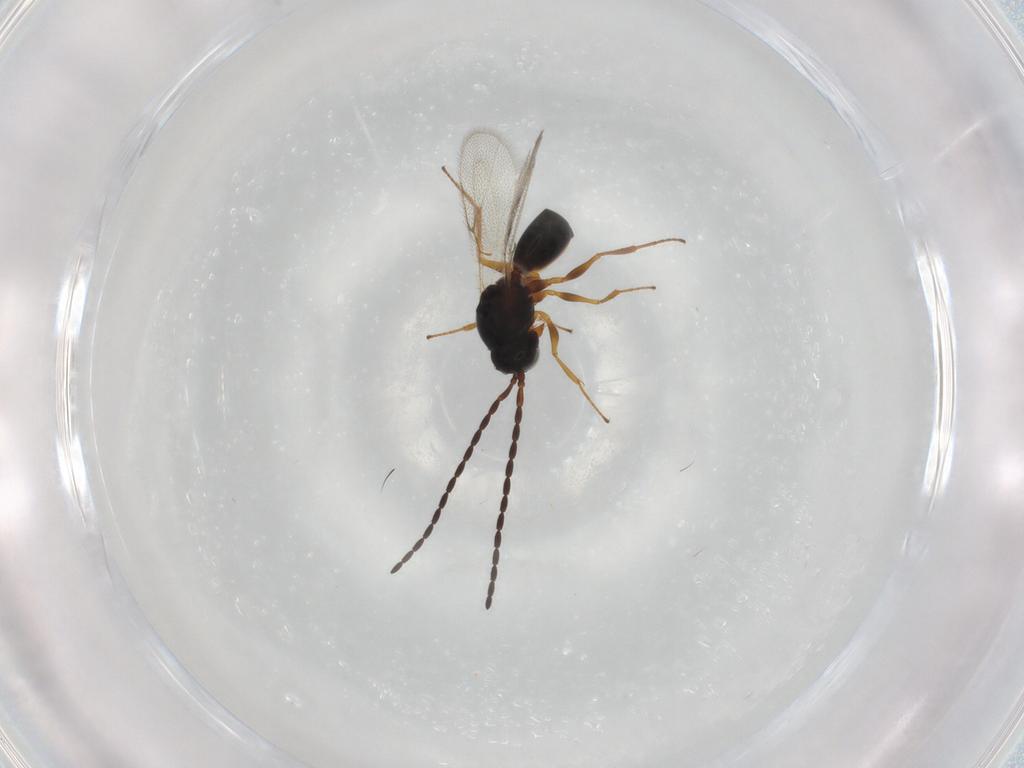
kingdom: Animalia
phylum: Arthropoda
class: Insecta
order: Hymenoptera
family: Figitidae
